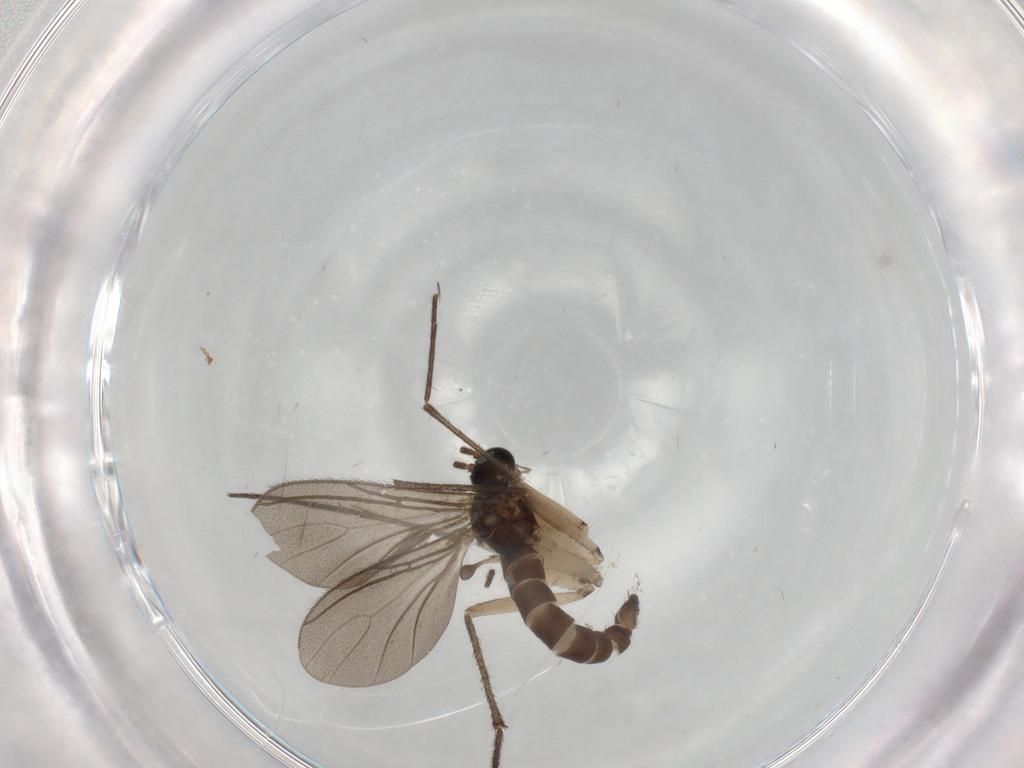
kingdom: Animalia
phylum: Arthropoda
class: Insecta
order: Diptera
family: Sciaridae
